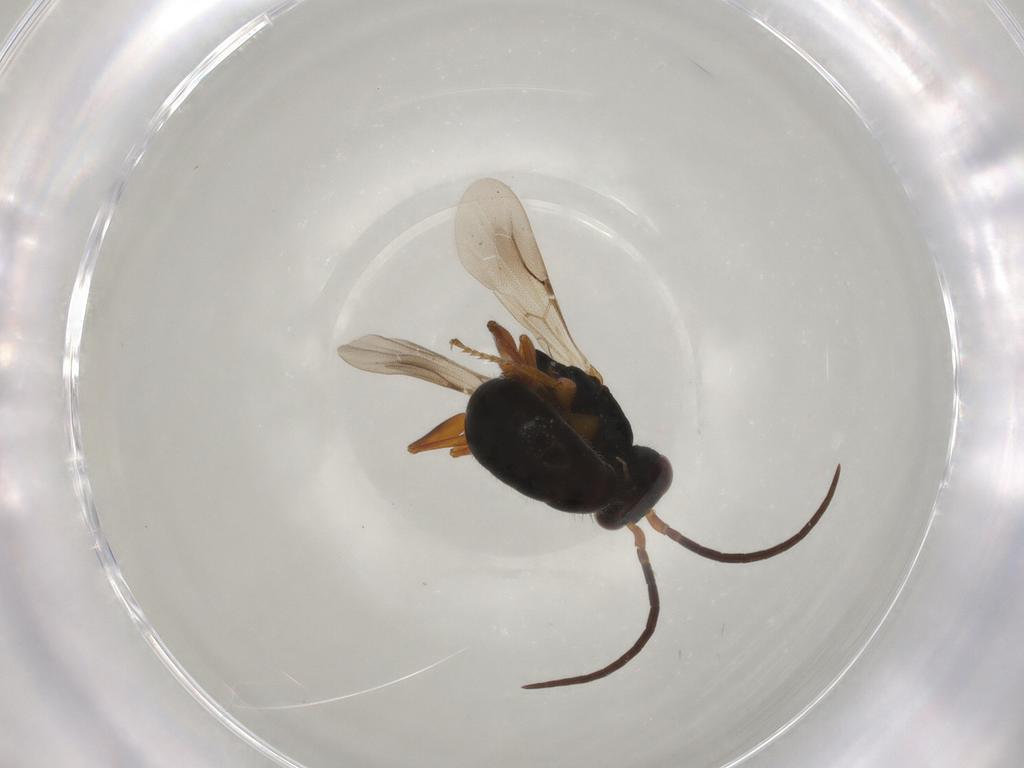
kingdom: Animalia
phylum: Arthropoda
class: Insecta
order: Hymenoptera
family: Bethylidae
